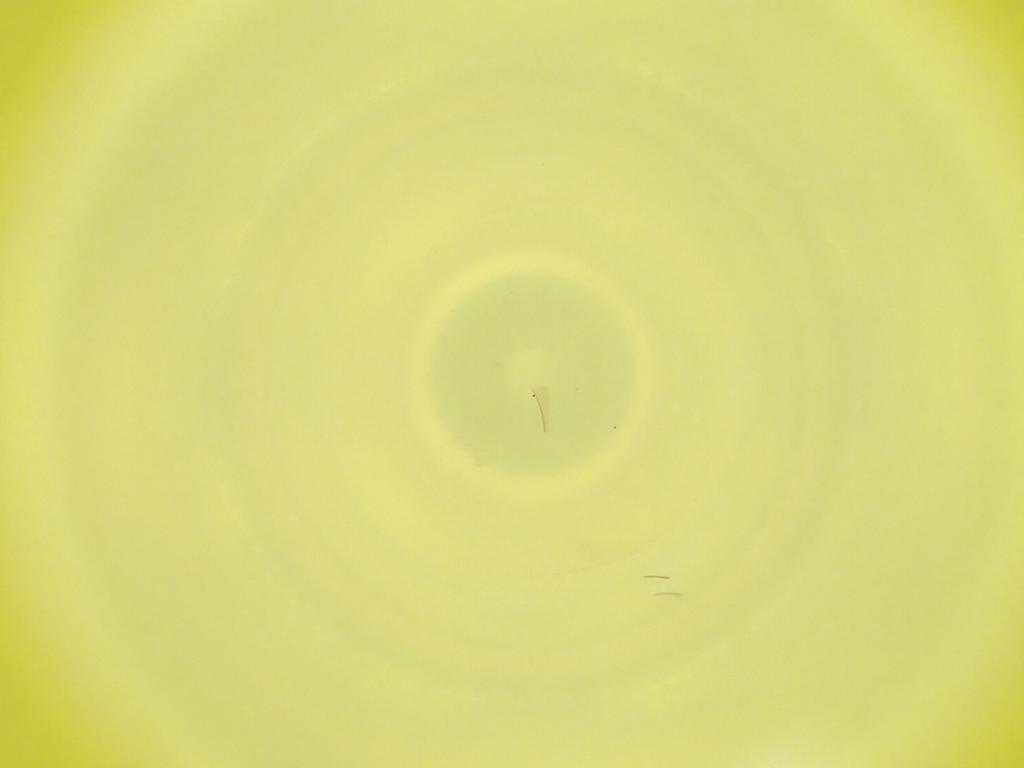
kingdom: Animalia
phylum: Arthropoda
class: Insecta
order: Diptera
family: Cecidomyiidae
